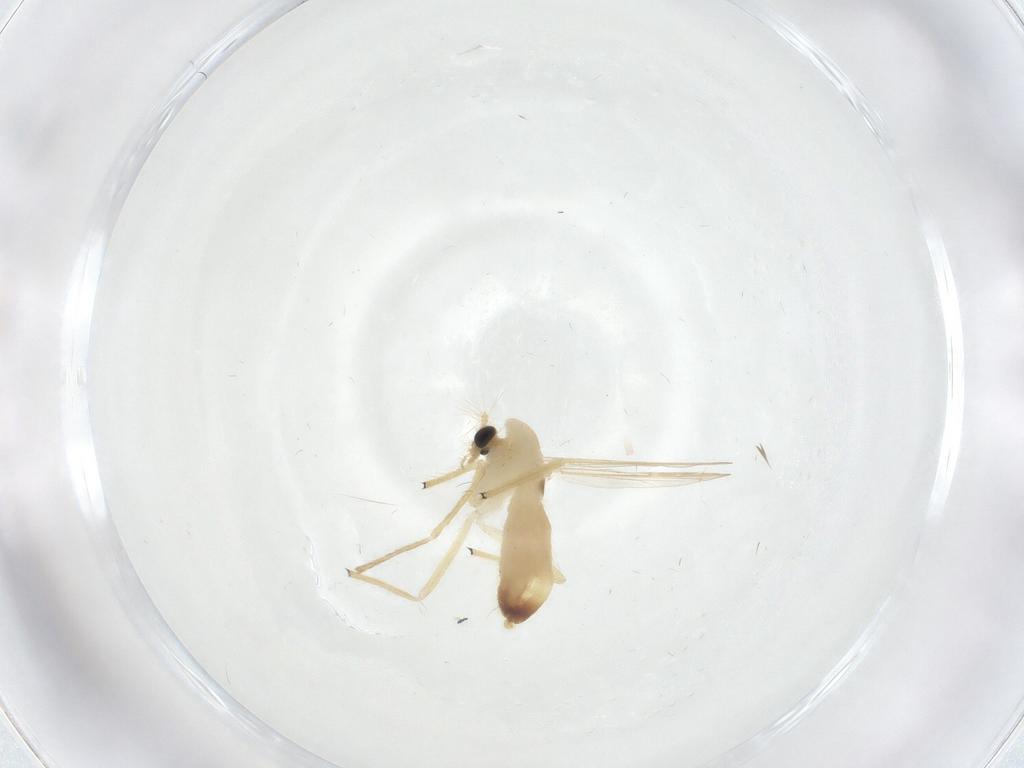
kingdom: Animalia
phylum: Arthropoda
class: Insecta
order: Diptera
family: Chironomidae
